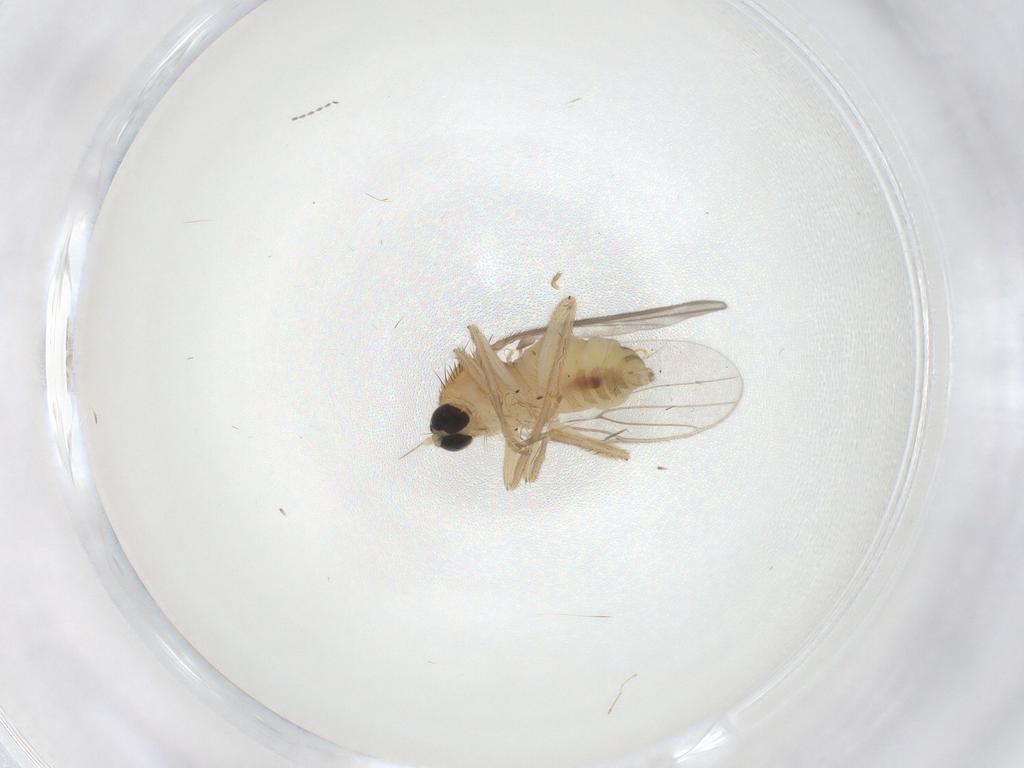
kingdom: Animalia
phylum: Arthropoda
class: Insecta
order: Diptera
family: Hybotidae
